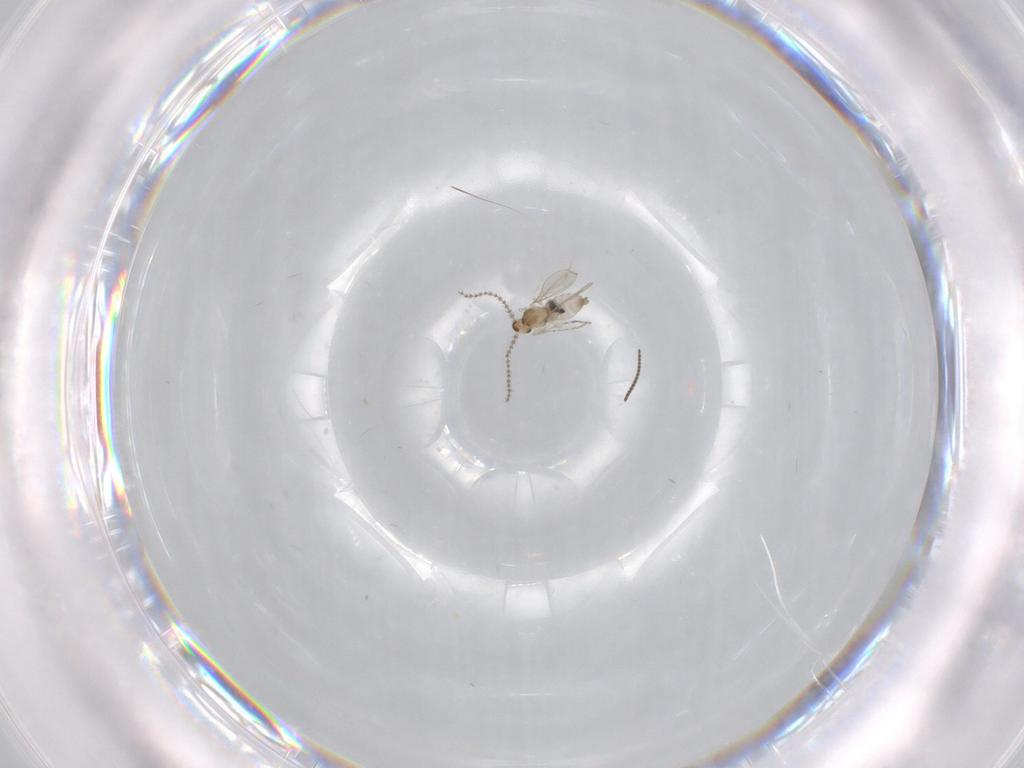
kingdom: Animalia
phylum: Arthropoda
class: Insecta
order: Diptera
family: Cecidomyiidae
